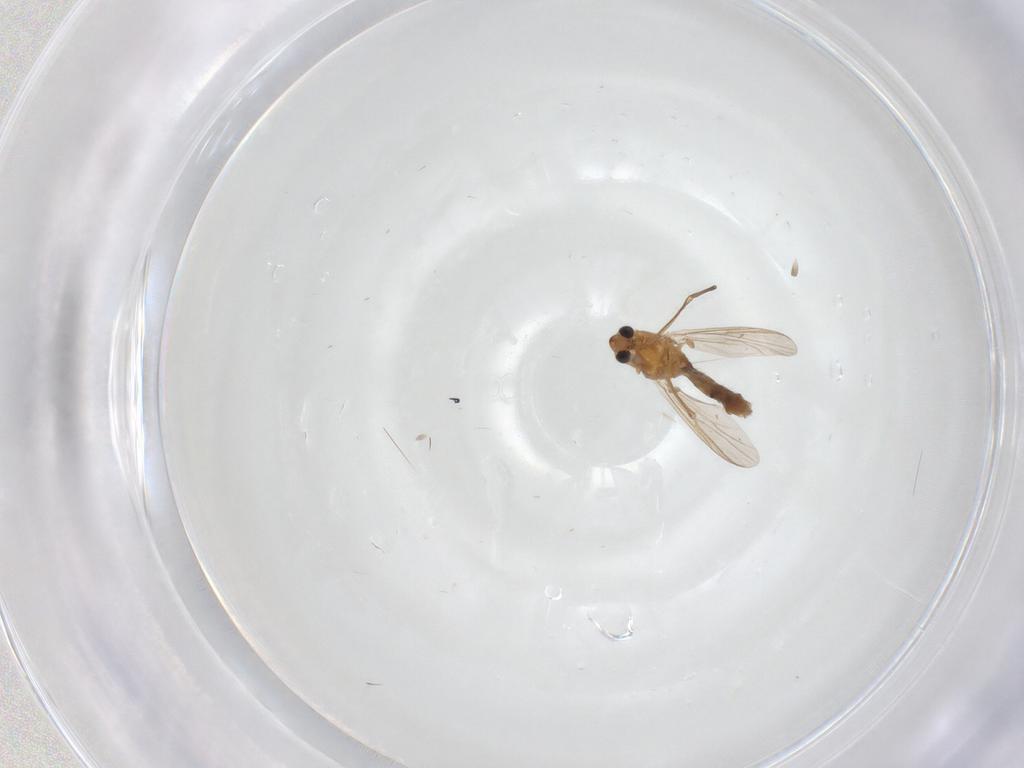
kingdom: Animalia
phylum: Arthropoda
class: Insecta
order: Diptera
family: Chironomidae
